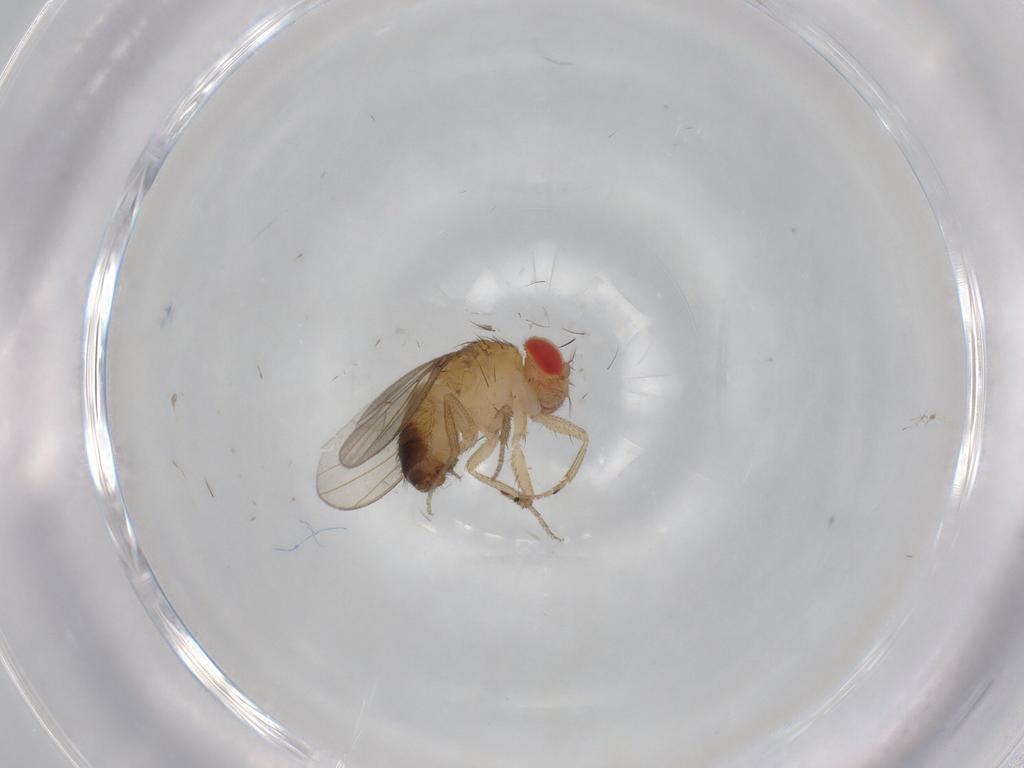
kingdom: Animalia
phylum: Arthropoda
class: Insecta
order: Diptera
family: Drosophilidae
